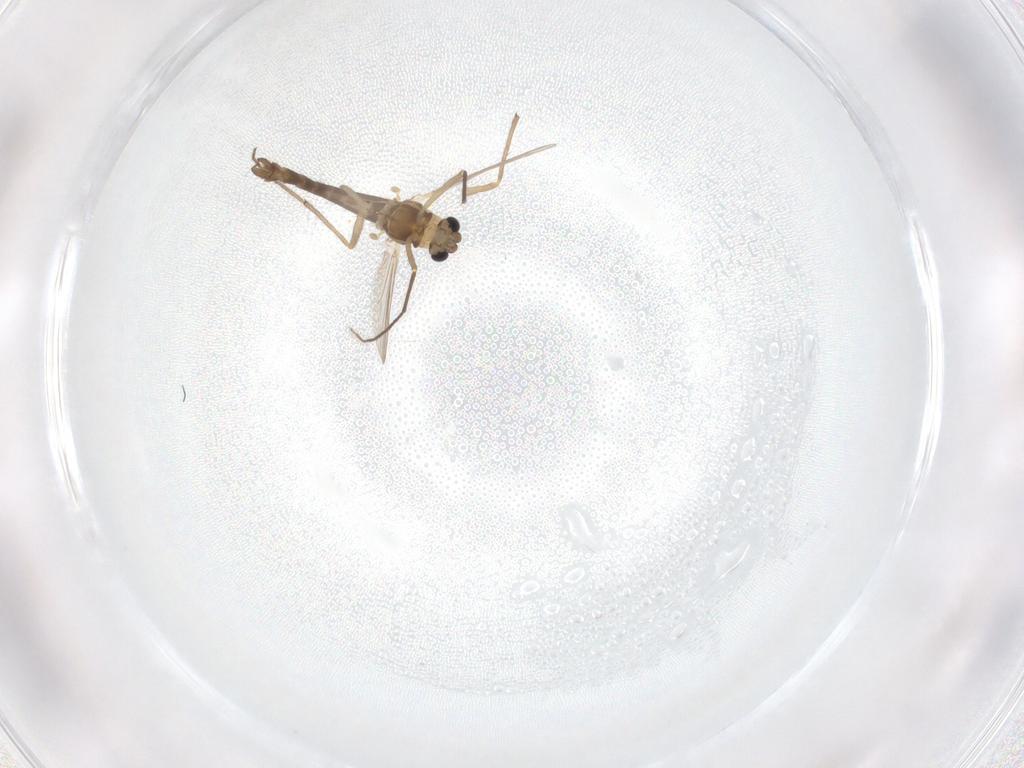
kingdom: Animalia
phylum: Arthropoda
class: Insecta
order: Diptera
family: Chironomidae
